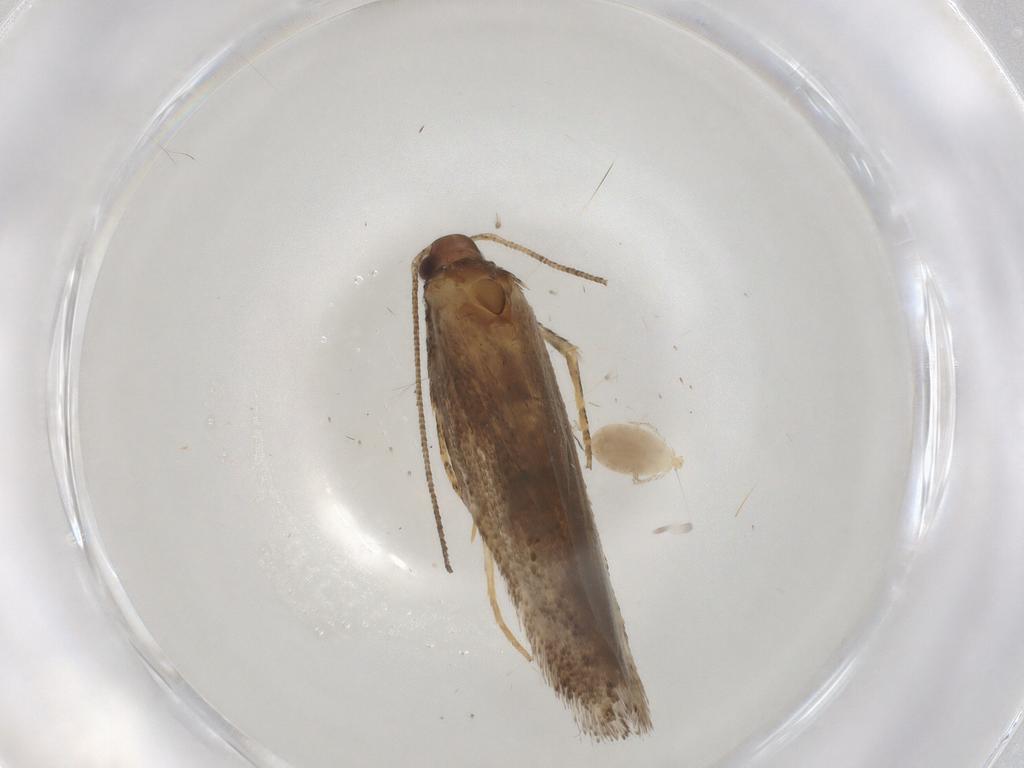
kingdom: Animalia
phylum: Arthropoda
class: Insecta
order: Lepidoptera
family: Gelechiidae
